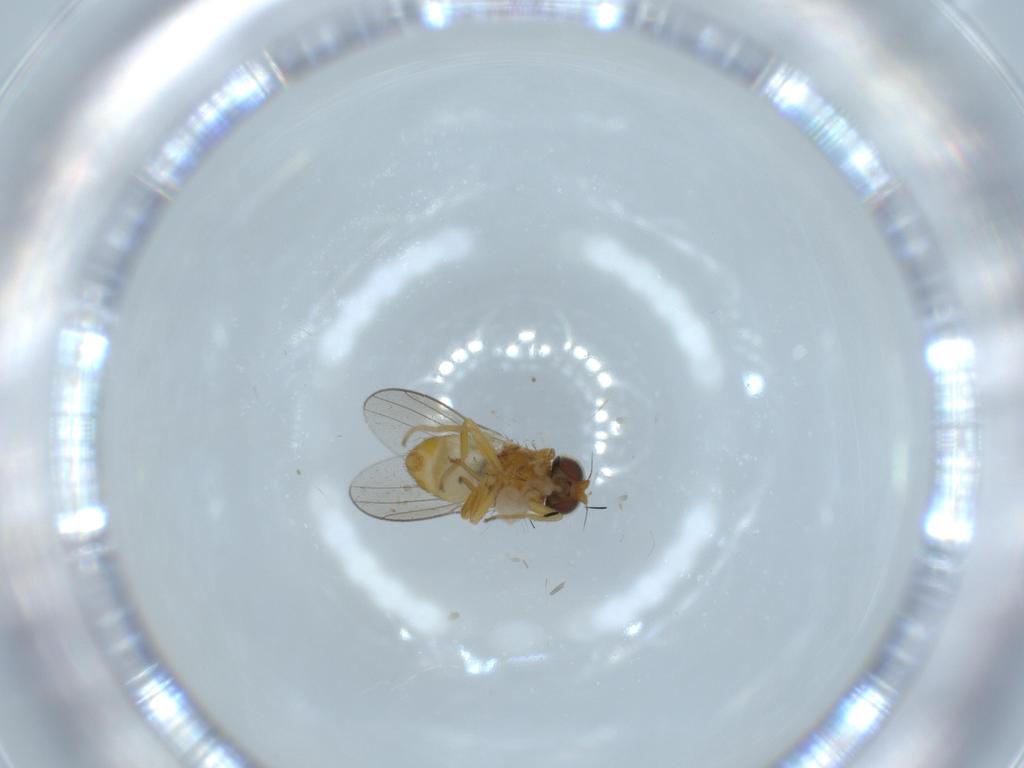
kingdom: Animalia
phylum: Arthropoda
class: Insecta
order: Diptera
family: Chloropidae
